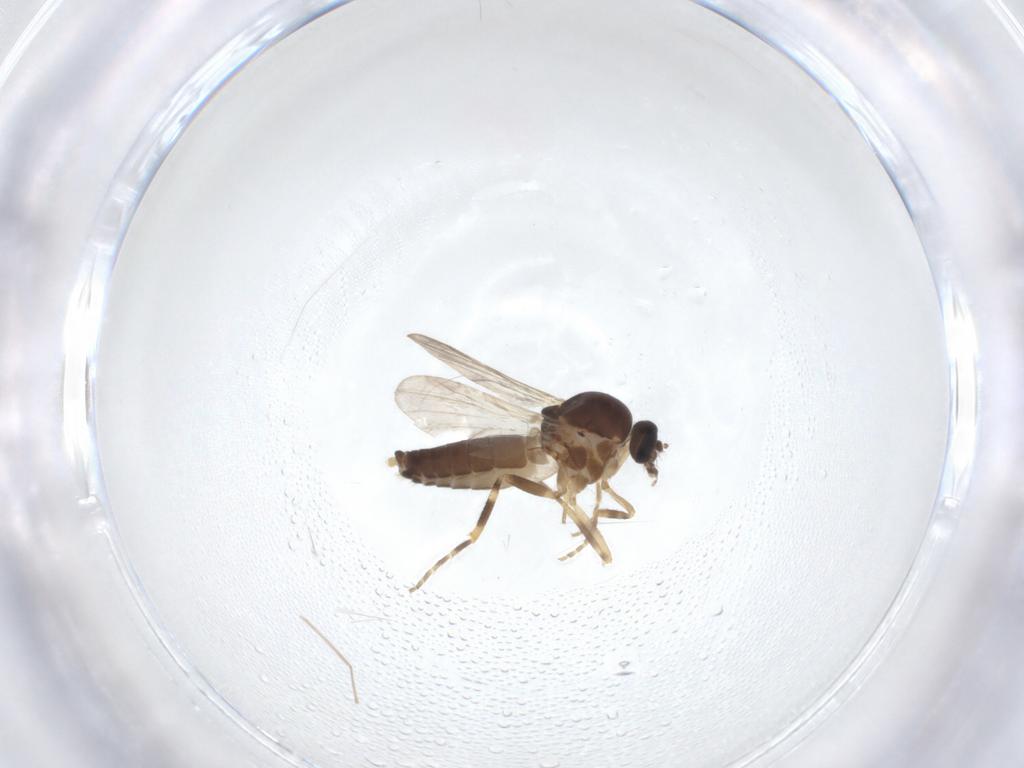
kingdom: Animalia
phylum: Arthropoda
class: Insecta
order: Diptera
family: Ceratopogonidae
